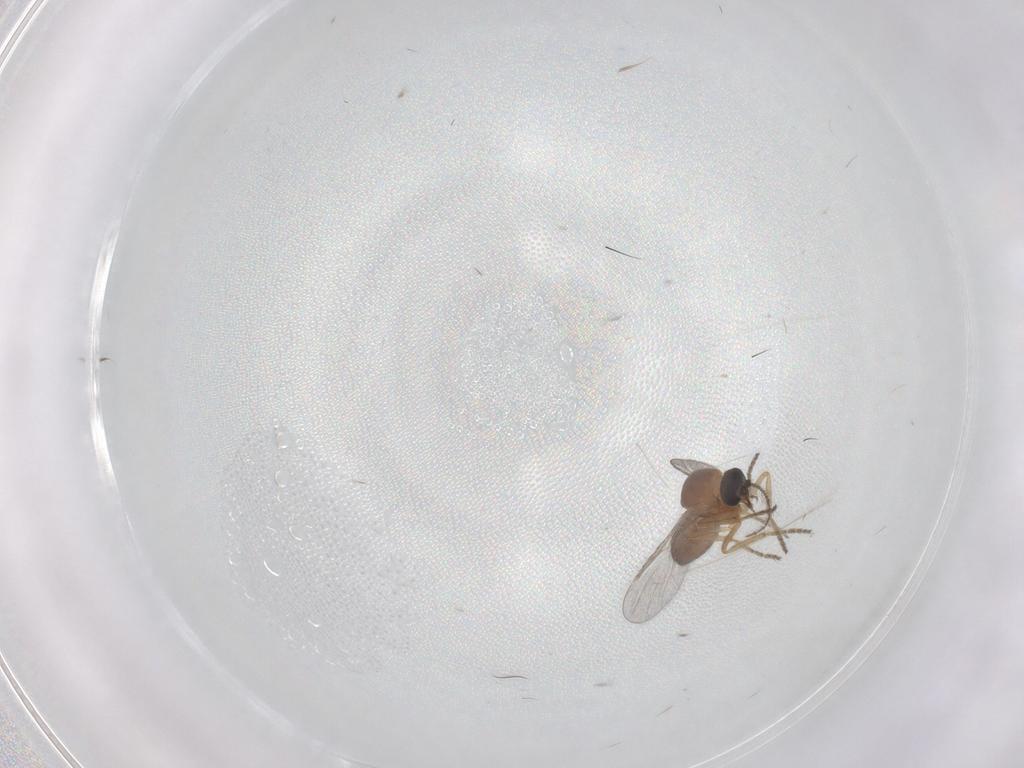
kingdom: Animalia
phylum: Arthropoda
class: Insecta
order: Diptera
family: Ceratopogonidae
